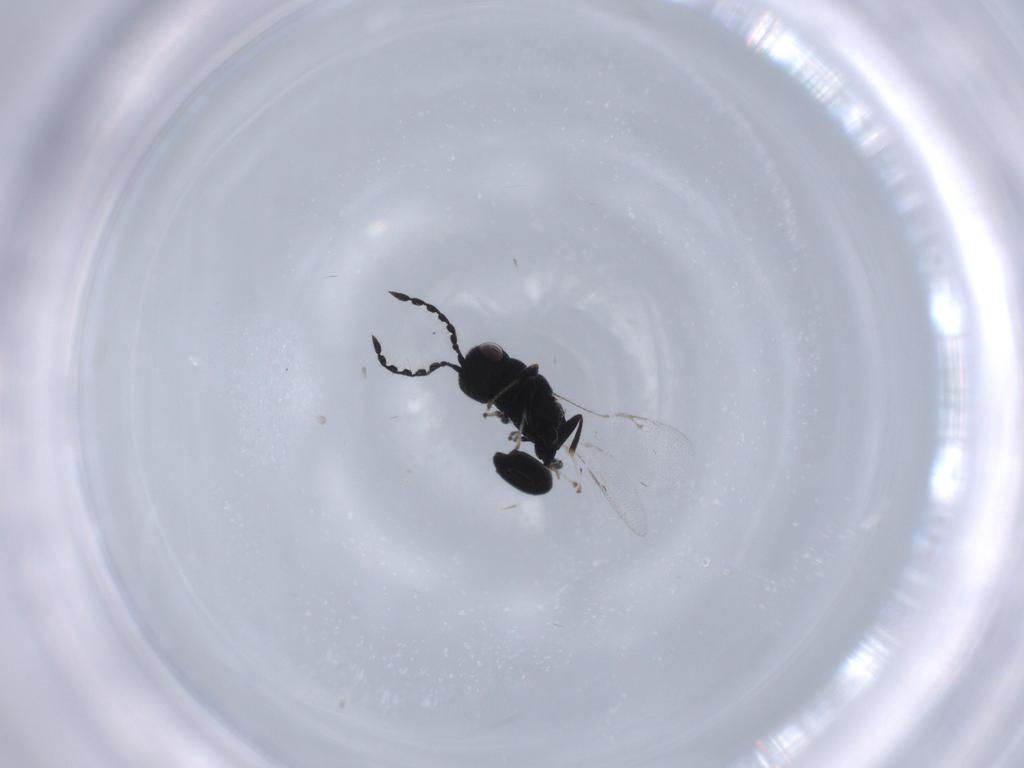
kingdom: Animalia
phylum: Arthropoda
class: Insecta
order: Hymenoptera
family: Eurytomidae
